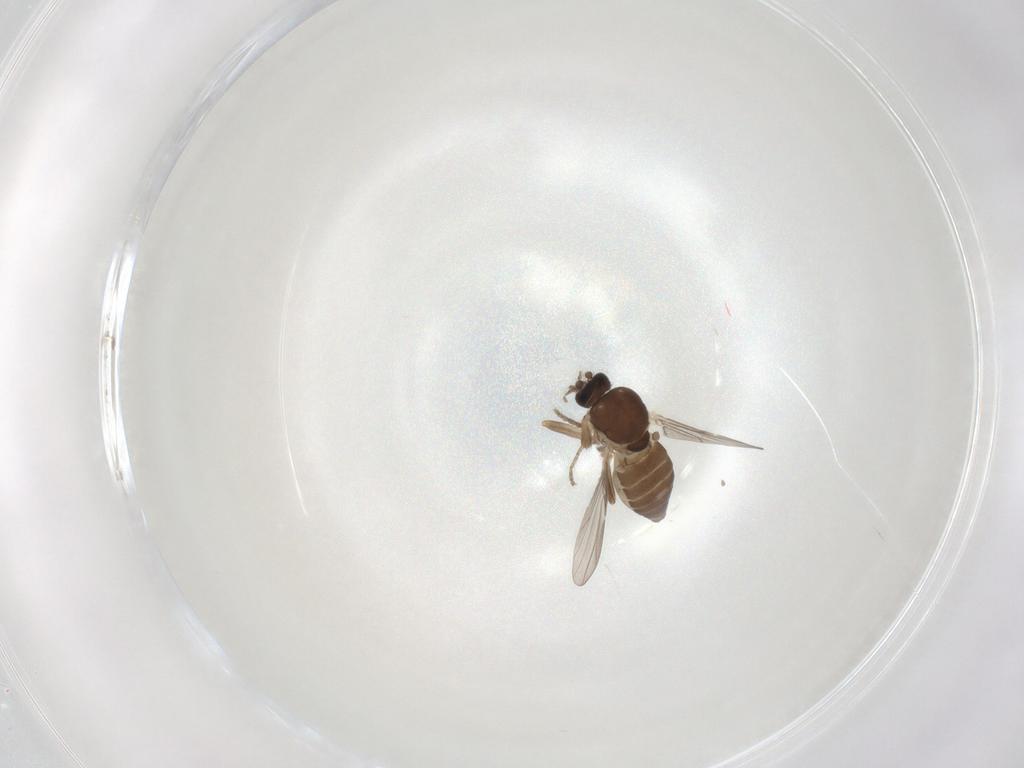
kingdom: Animalia
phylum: Arthropoda
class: Insecta
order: Diptera
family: Ceratopogonidae
